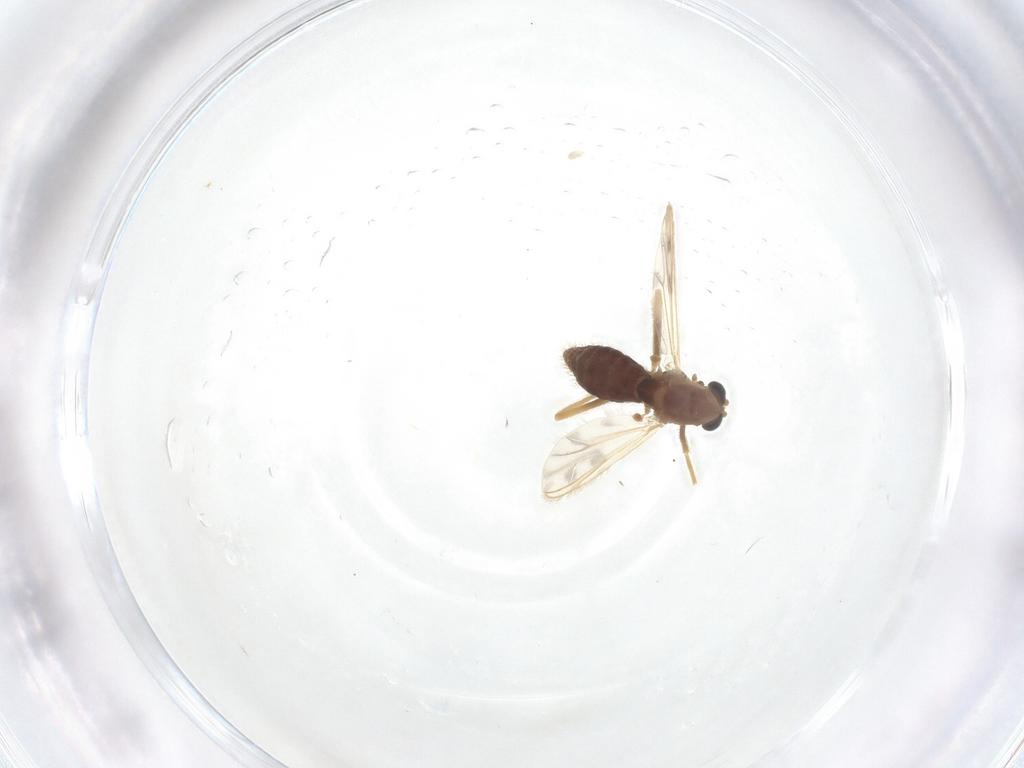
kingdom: Animalia
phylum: Arthropoda
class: Insecta
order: Diptera
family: Chironomidae
